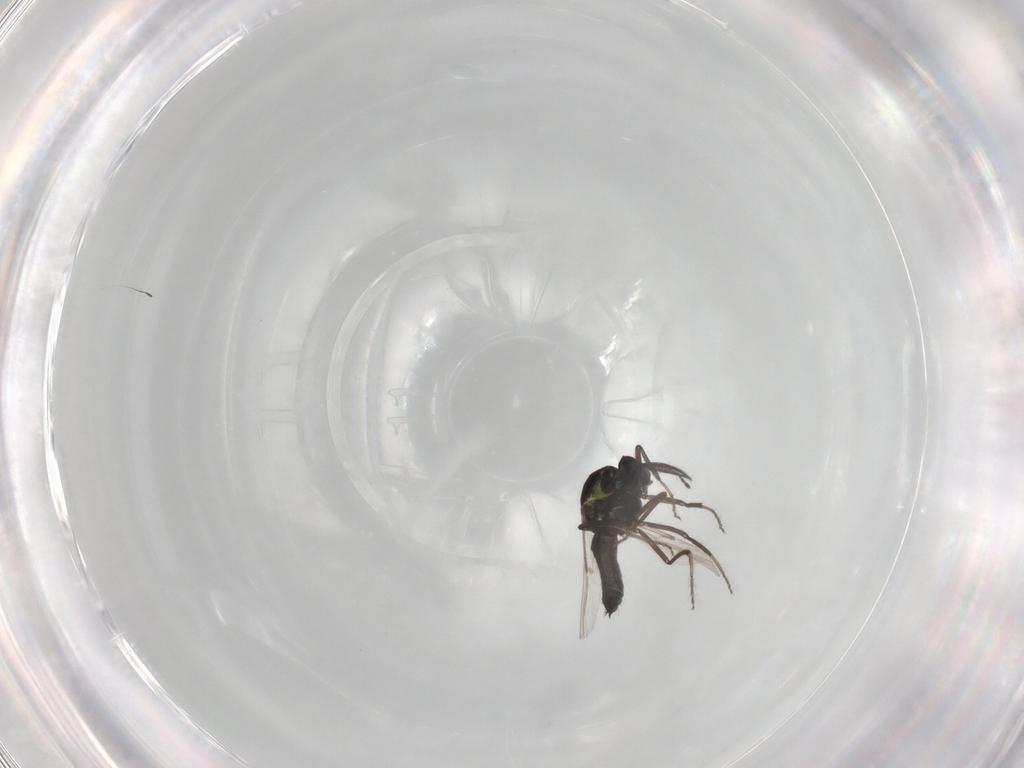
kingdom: Animalia
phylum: Arthropoda
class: Insecta
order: Diptera
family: Ceratopogonidae
